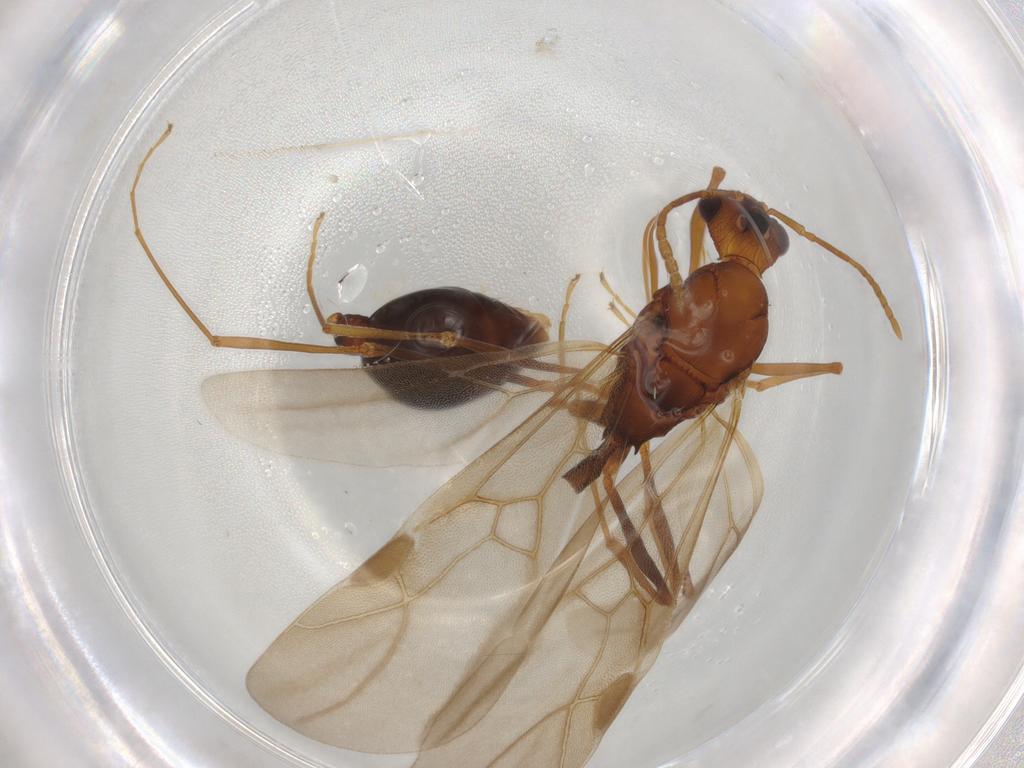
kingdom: Animalia
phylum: Arthropoda
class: Insecta
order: Hymenoptera
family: Formicidae
